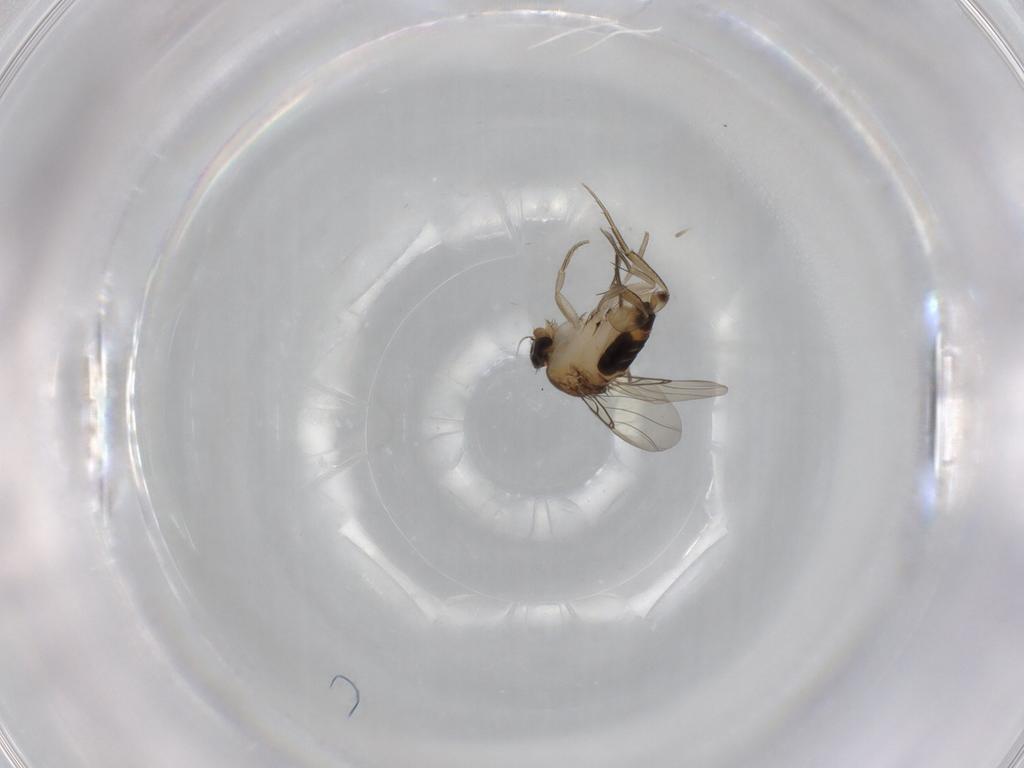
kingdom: Animalia
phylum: Arthropoda
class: Insecta
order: Diptera
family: Phoridae
